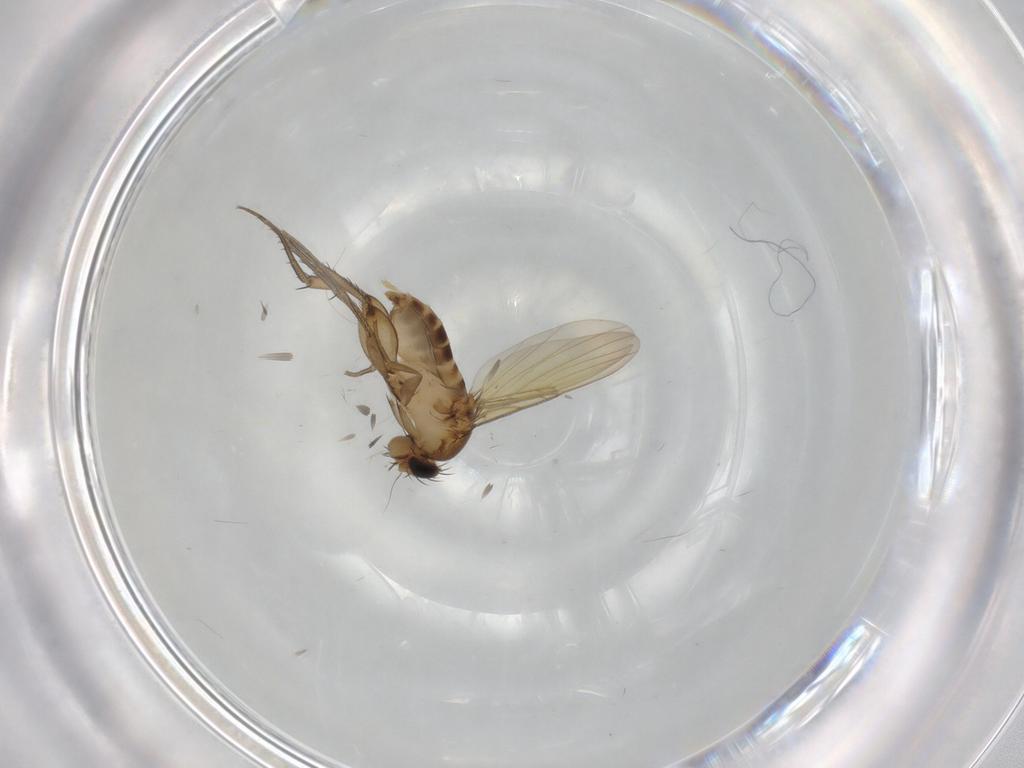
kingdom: Animalia
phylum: Arthropoda
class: Insecta
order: Diptera
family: Phoridae
